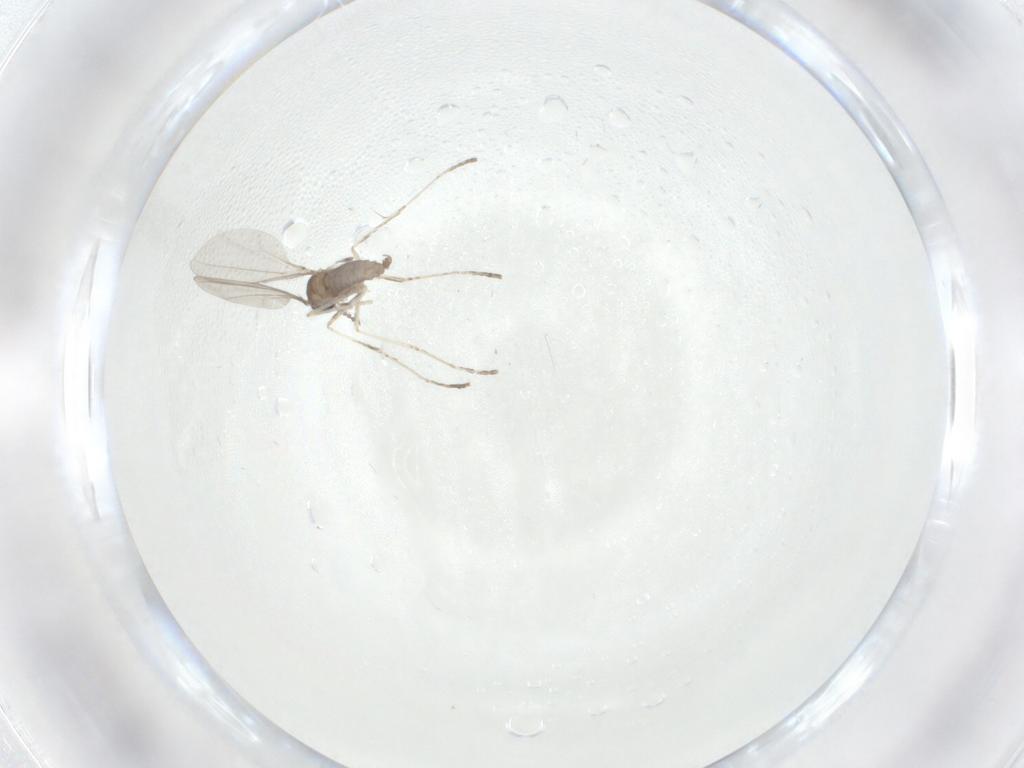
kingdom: Animalia
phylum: Arthropoda
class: Insecta
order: Diptera
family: Cecidomyiidae
